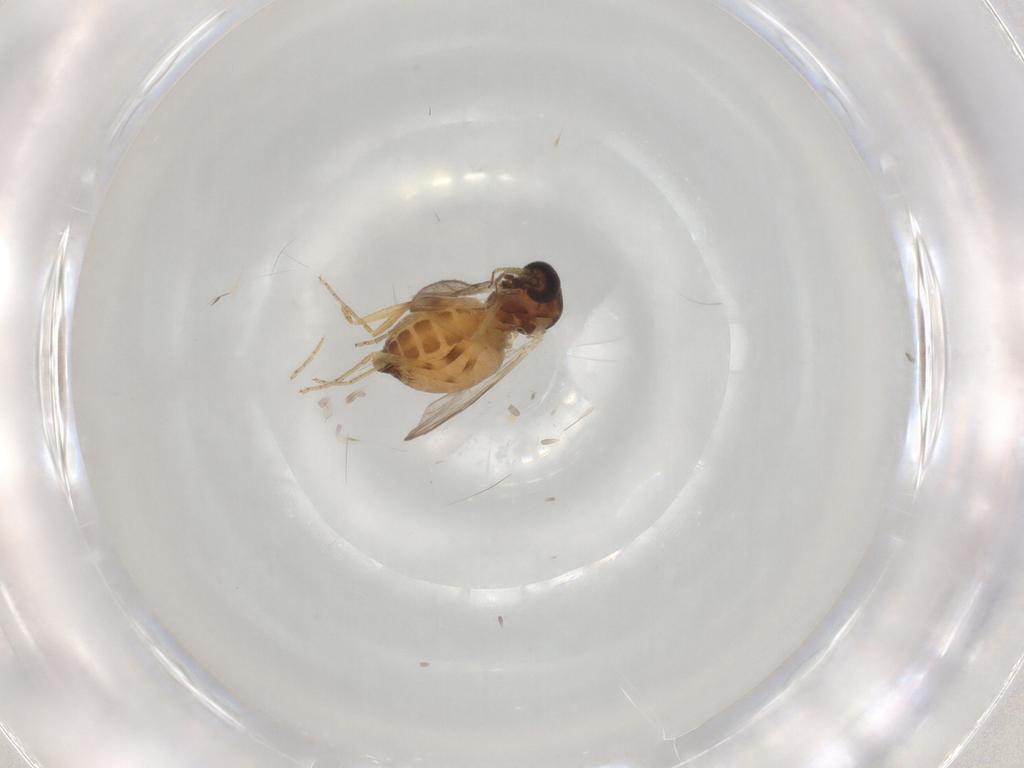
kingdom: Animalia
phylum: Arthropoda
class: Insecta
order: Diptera
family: Ceratopogonidae
